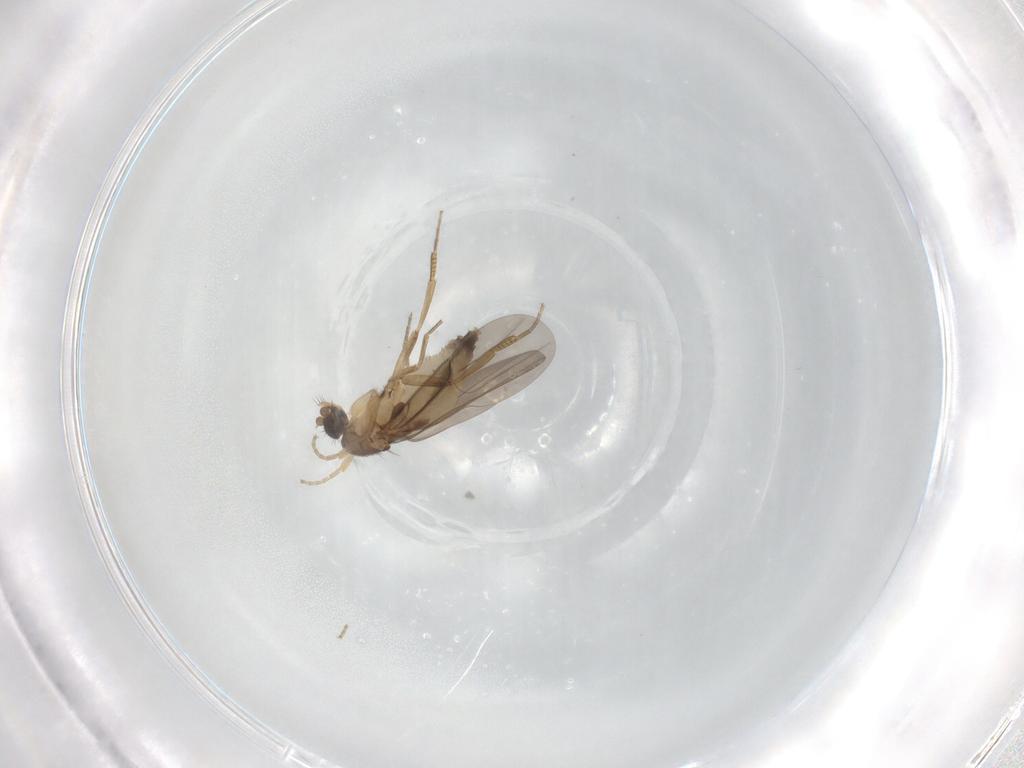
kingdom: Animalia
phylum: Arthropoda
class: Insecta
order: Diptera
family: Phoridae
